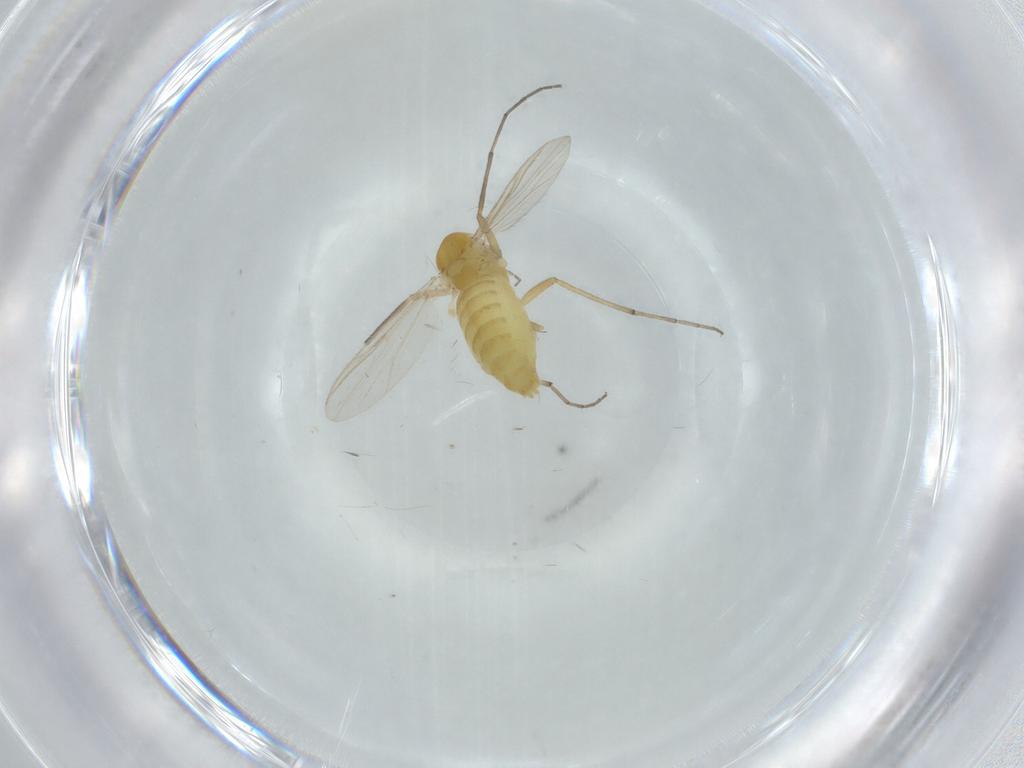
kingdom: Animalia
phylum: Arthropoda
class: Insecta
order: Diptera
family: Chironomidae
